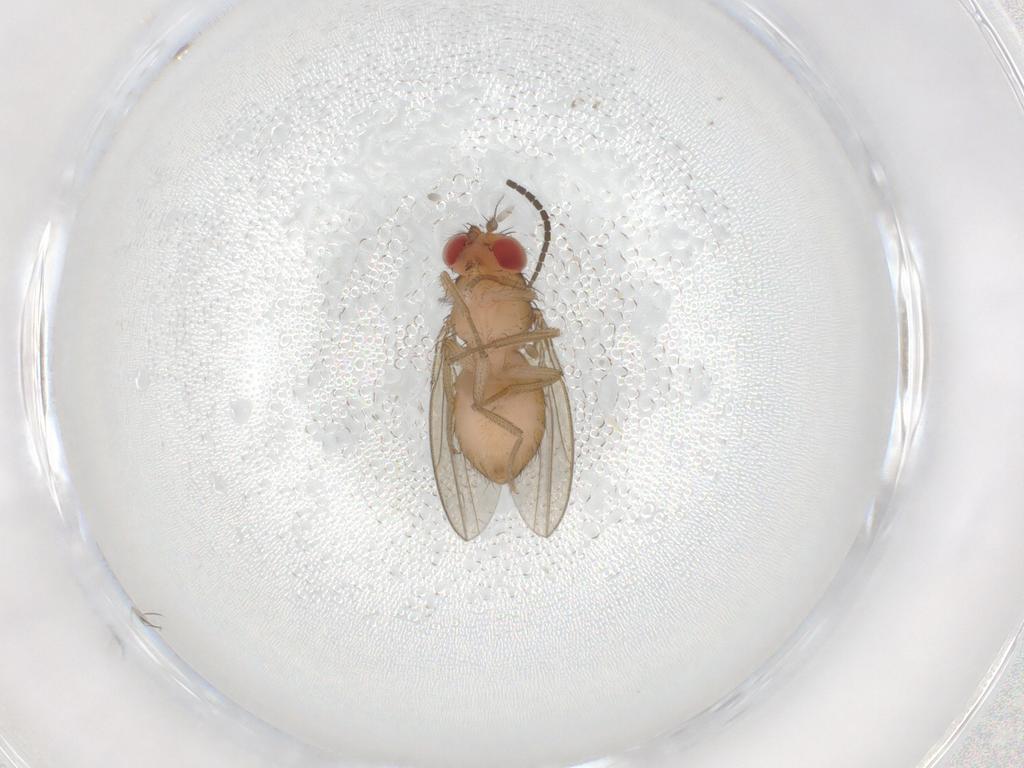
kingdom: Animalia
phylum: Arthropoda
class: Insecta
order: Diptera
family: Drosophilidae
